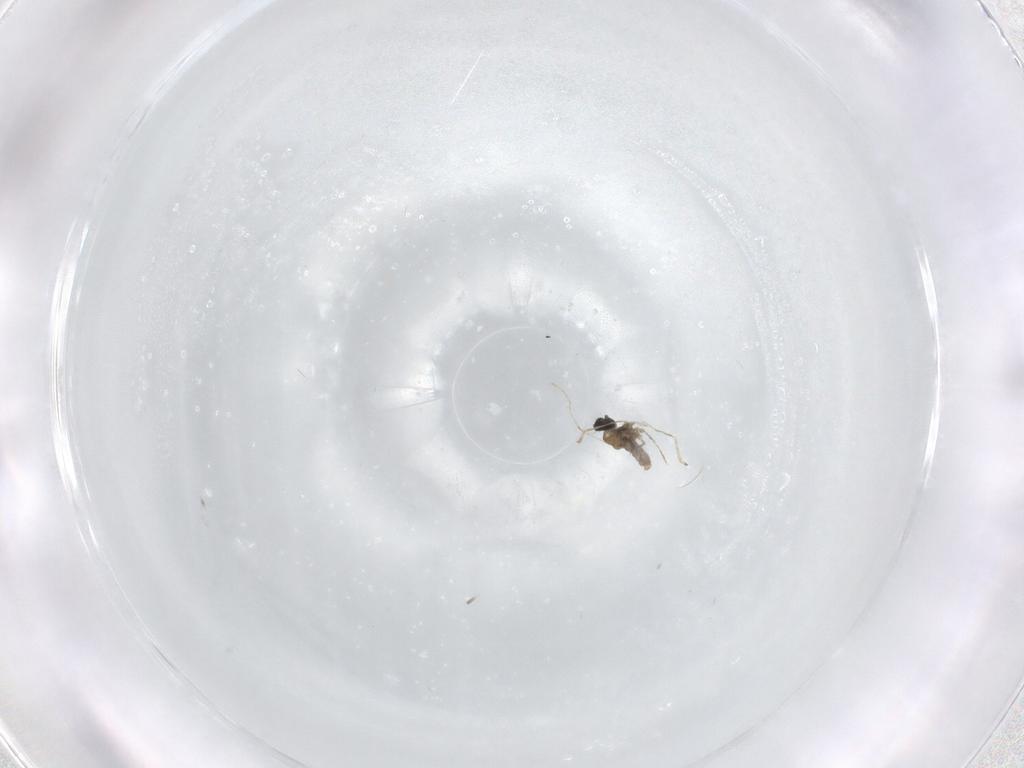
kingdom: Animalia
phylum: Arthropoda
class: Insecta
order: Diptera
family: Cecidomyiidae
